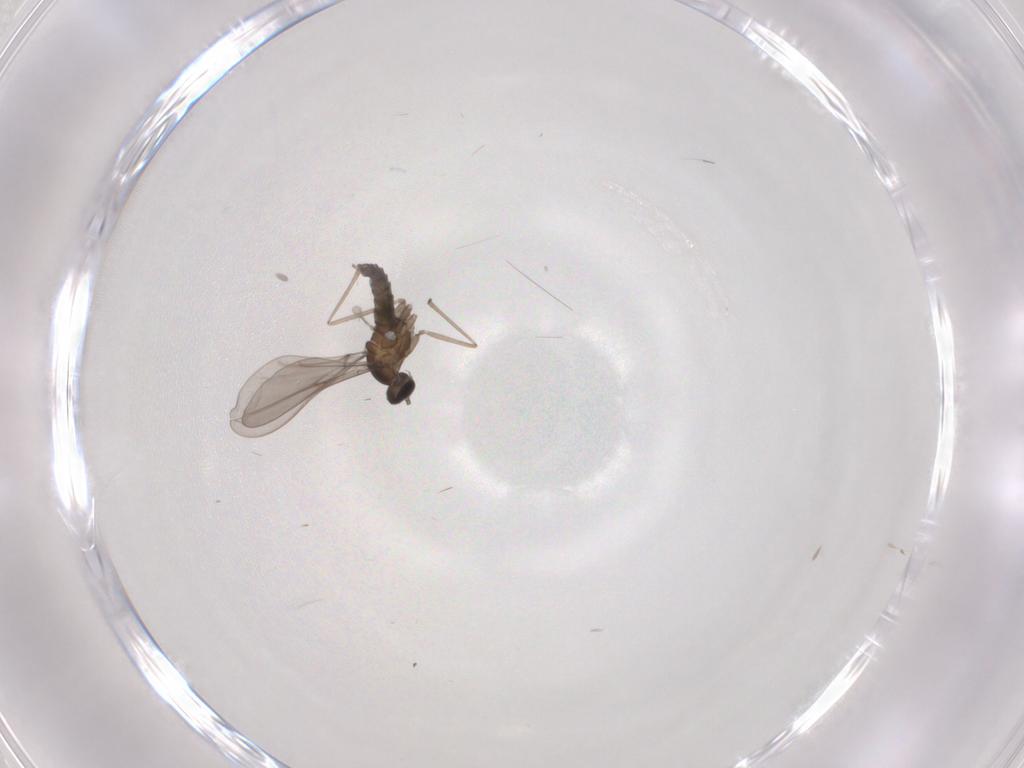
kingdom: Animalia
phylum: Arthropoda
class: Insecta
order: Diptera
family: Cecidomyiidae
